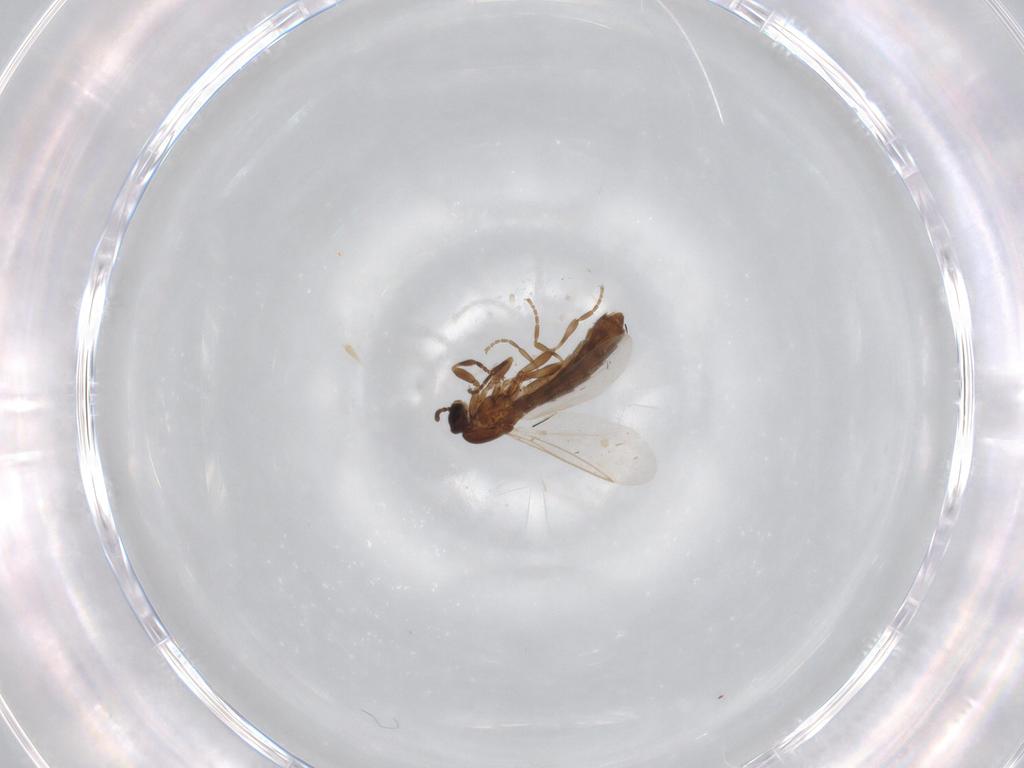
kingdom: Animalia
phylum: Arthropoda
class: Insecta
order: Diptera
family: Scatopsidae
